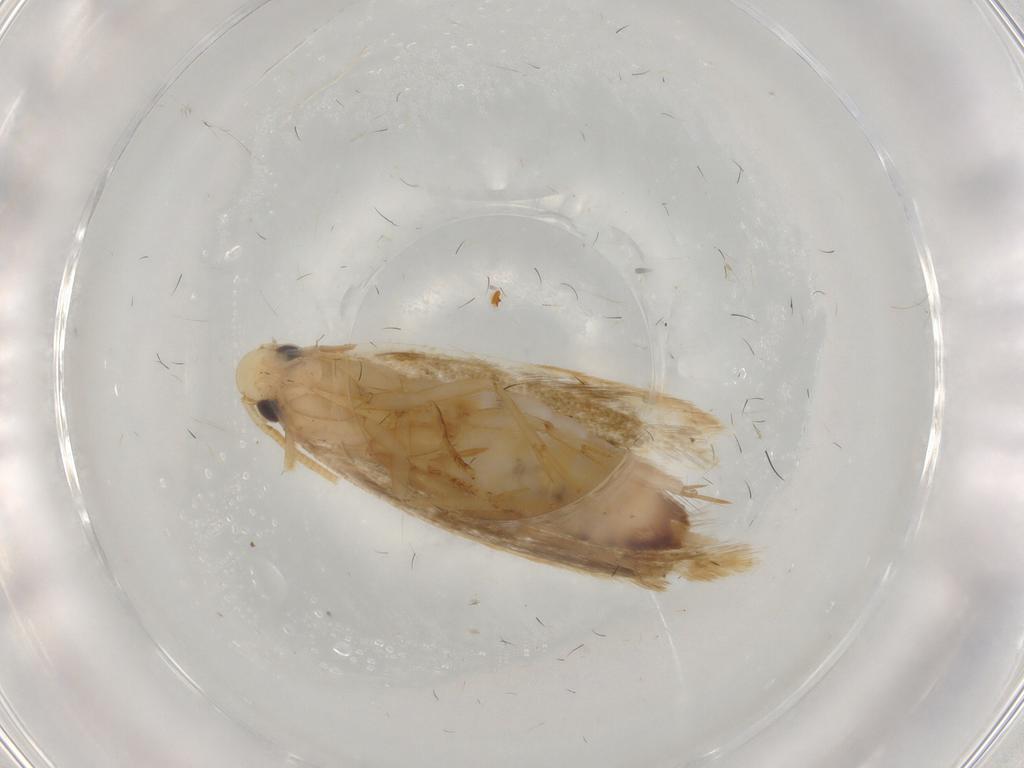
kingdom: Animalia
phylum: Arthropoda
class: Insecta
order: Lepidoptera
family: Tineidae
